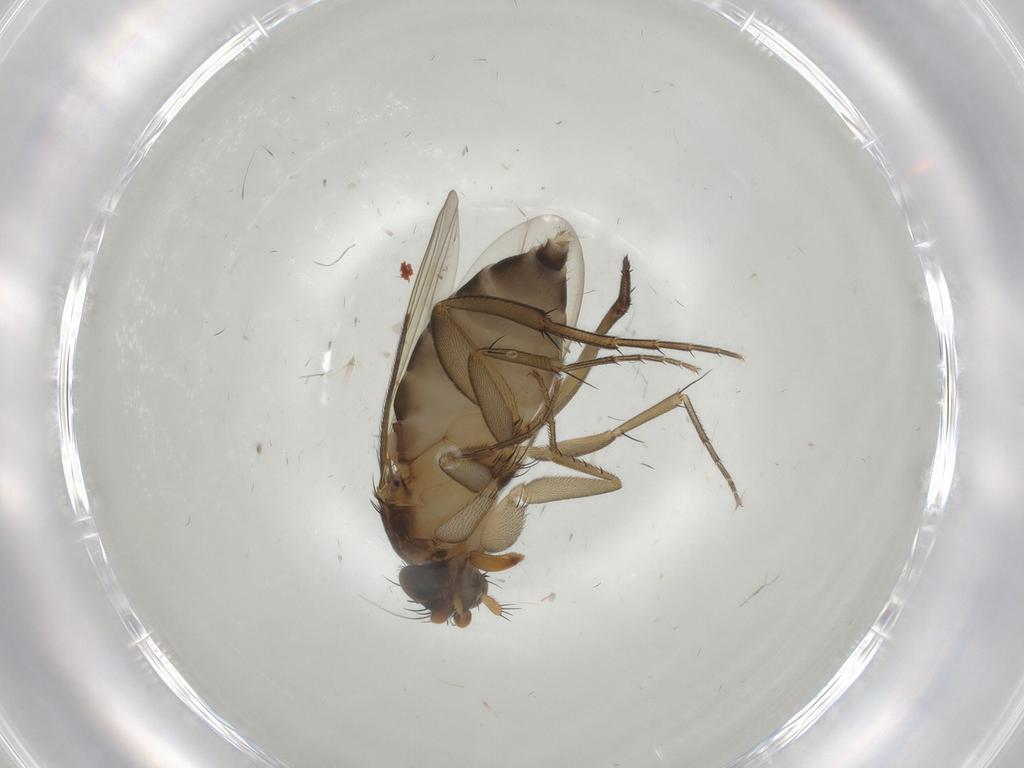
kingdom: Animalia
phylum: Arthropoda
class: Insecta
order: Diptera
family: Phoridae
